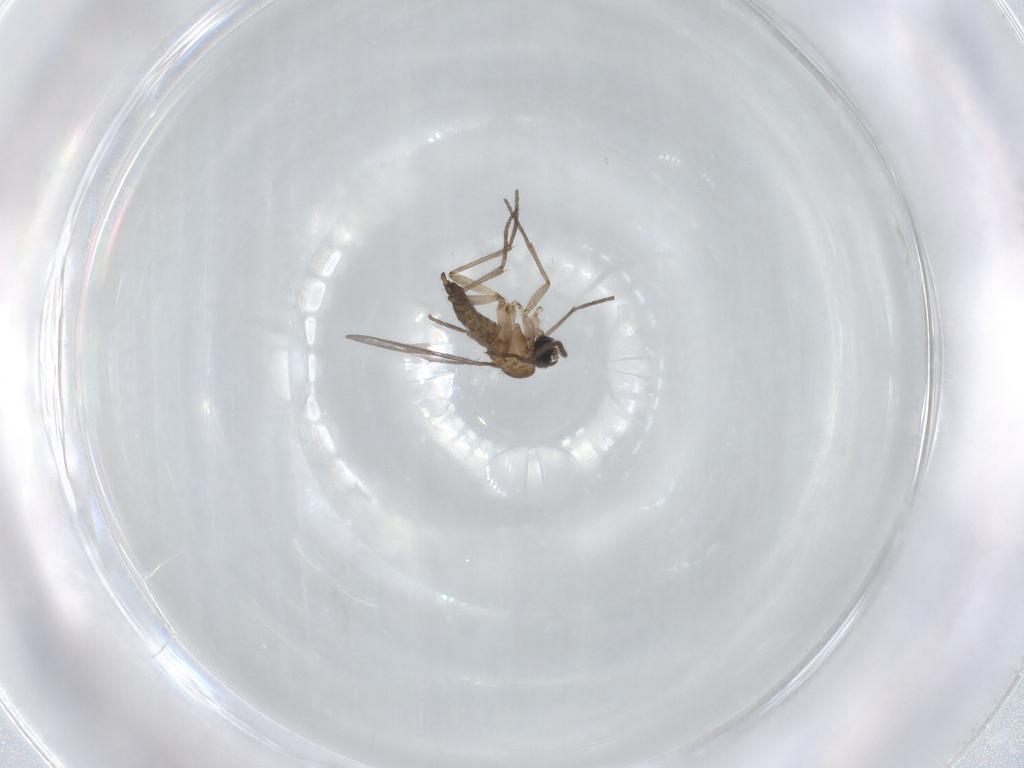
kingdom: Animalia
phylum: Arthropoda
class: Insecta
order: Diptera
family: Sciaridae
